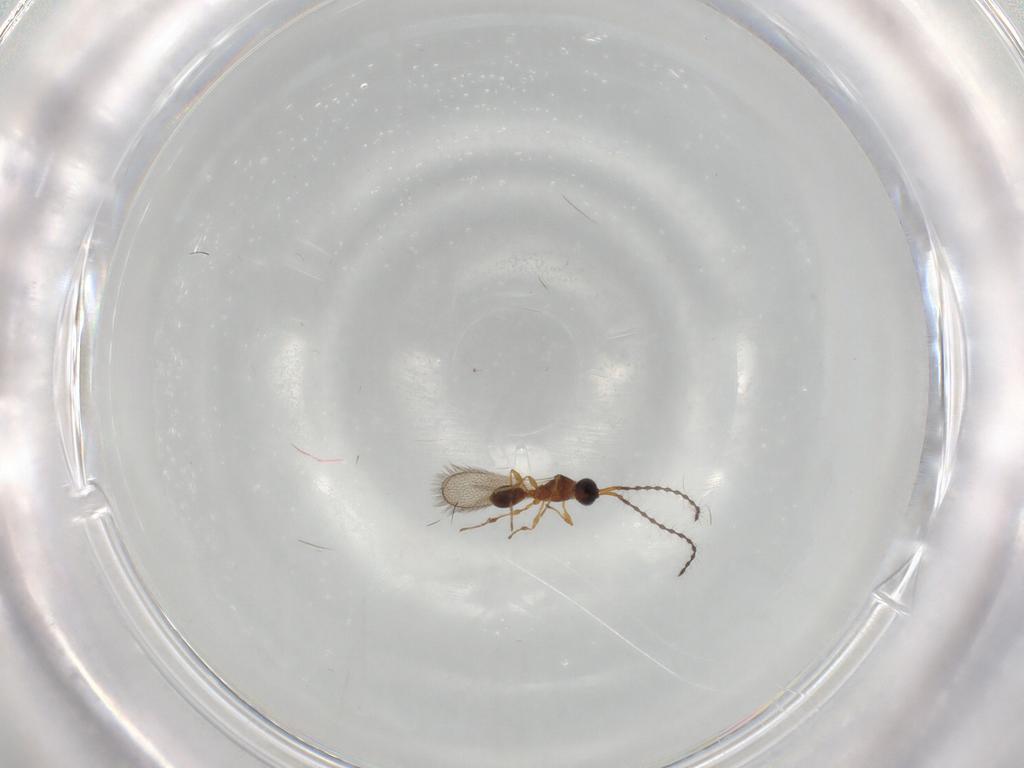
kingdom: Animalia
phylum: Arthropoda
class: Insecta
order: Hymenoptera
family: Diapriidae
